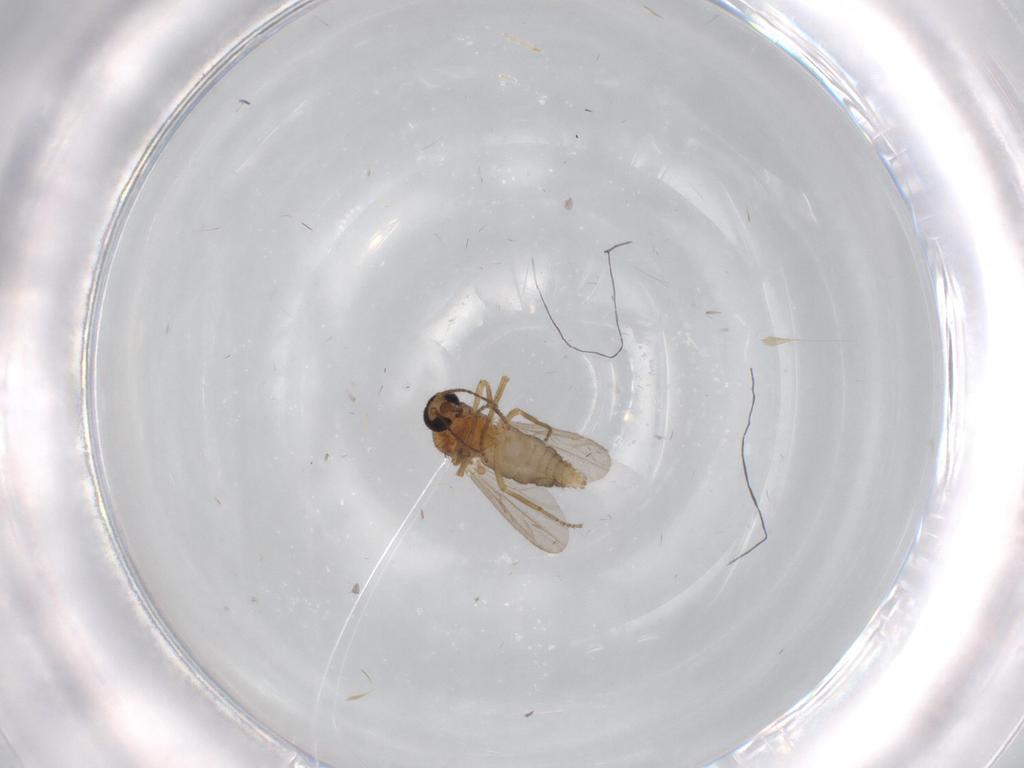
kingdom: Animalia
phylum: Arthropoda
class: Insecta
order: Diptera
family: Ceratopogonidae
